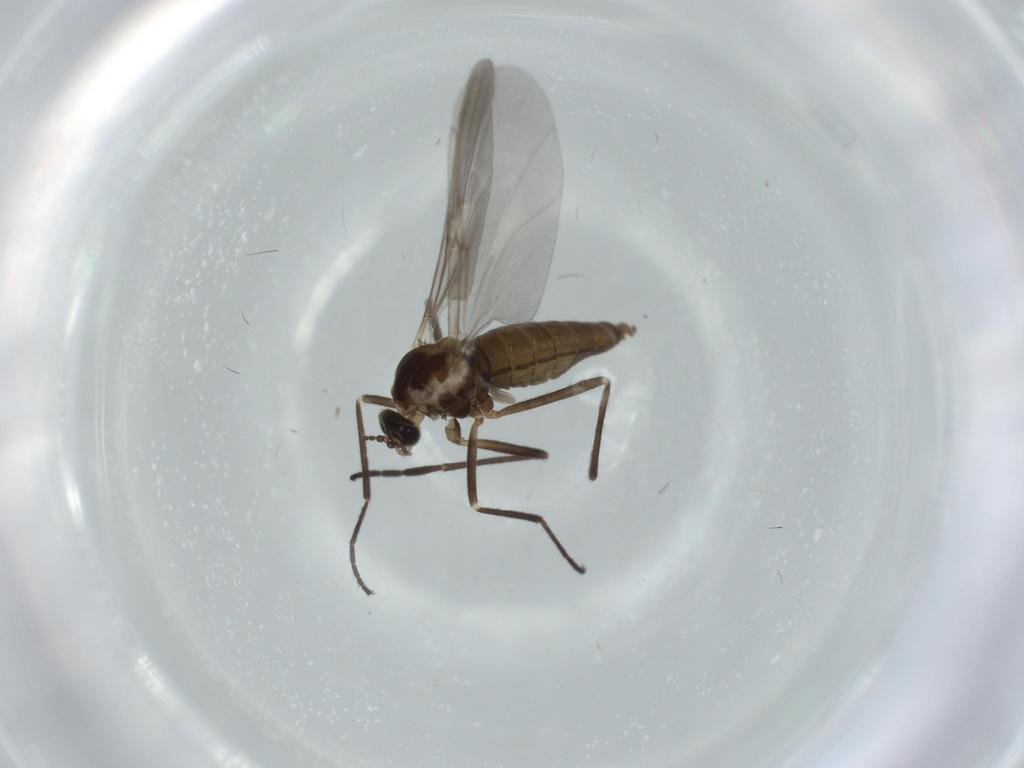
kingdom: Animalia
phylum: Arthropoda
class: Insecta
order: Diptera
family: Cecidomyiidae
